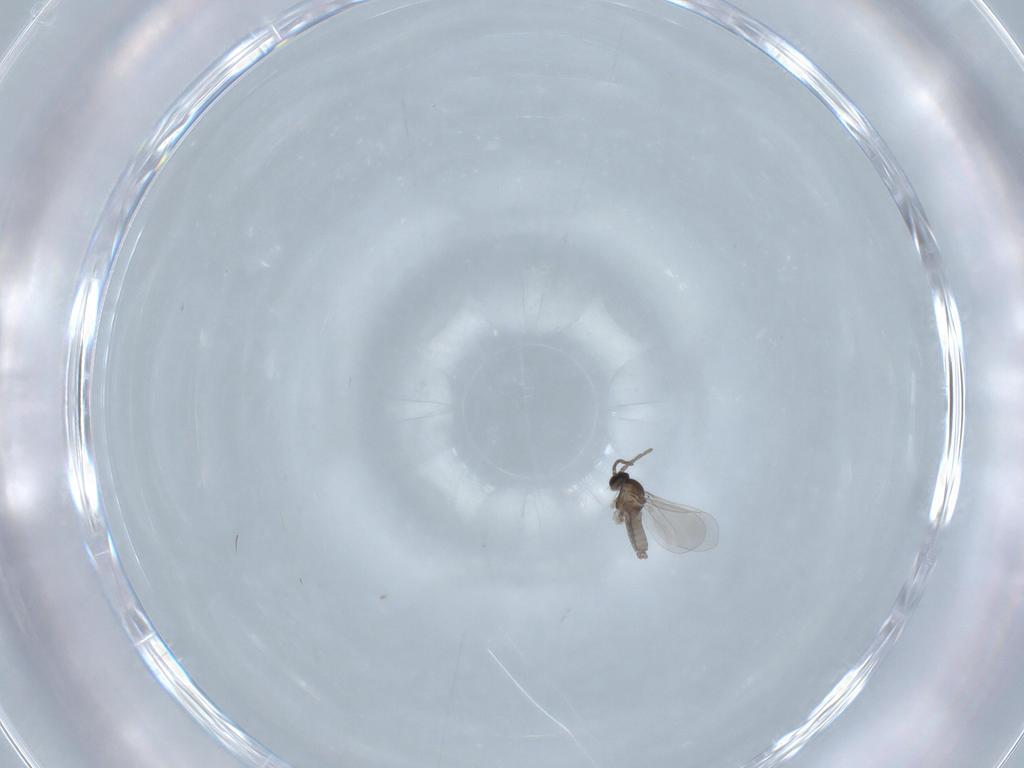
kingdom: Animalia
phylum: Arthropoda
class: Insecta
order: Diptera
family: Cecidomyiidae
